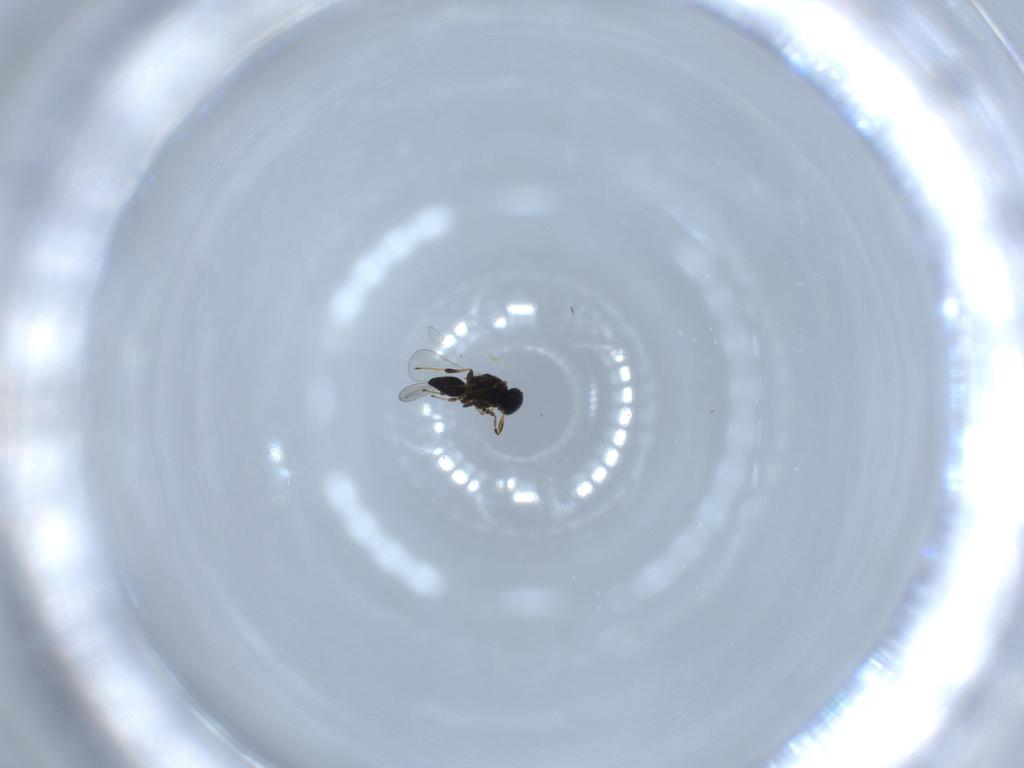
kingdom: Animalia
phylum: Arthropoda
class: Insecta
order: Hymenoptera
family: Platygastridae
